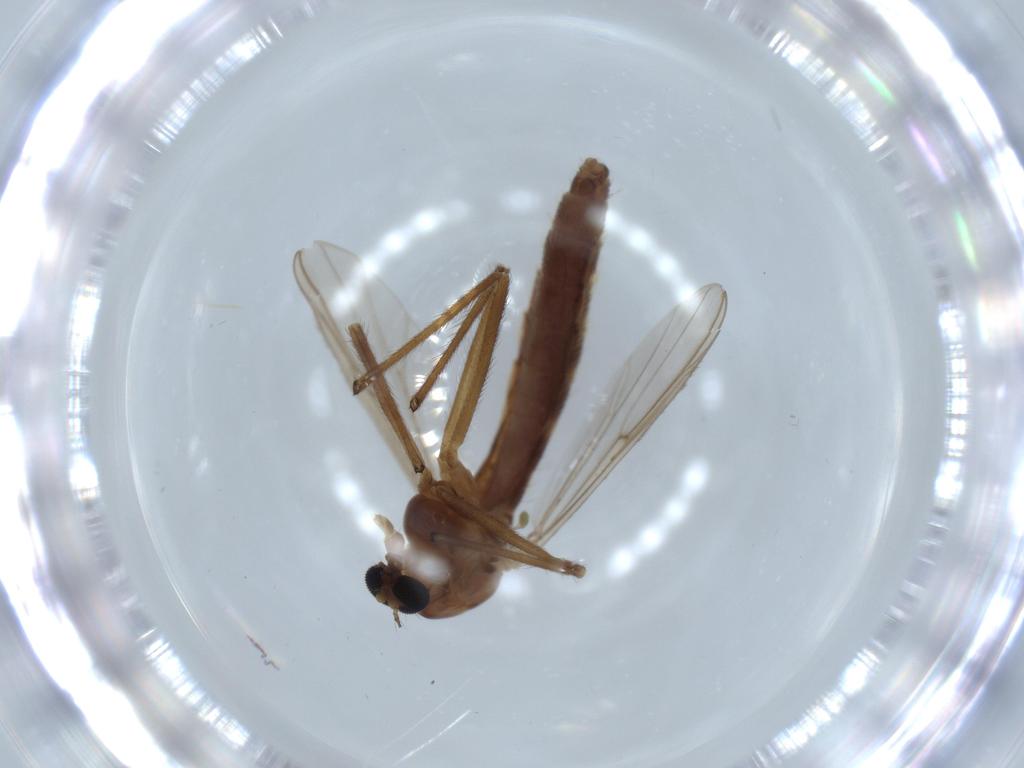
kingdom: Animalia
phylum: Arthropoda
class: Insecta
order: Diptera
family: Chironomidae
